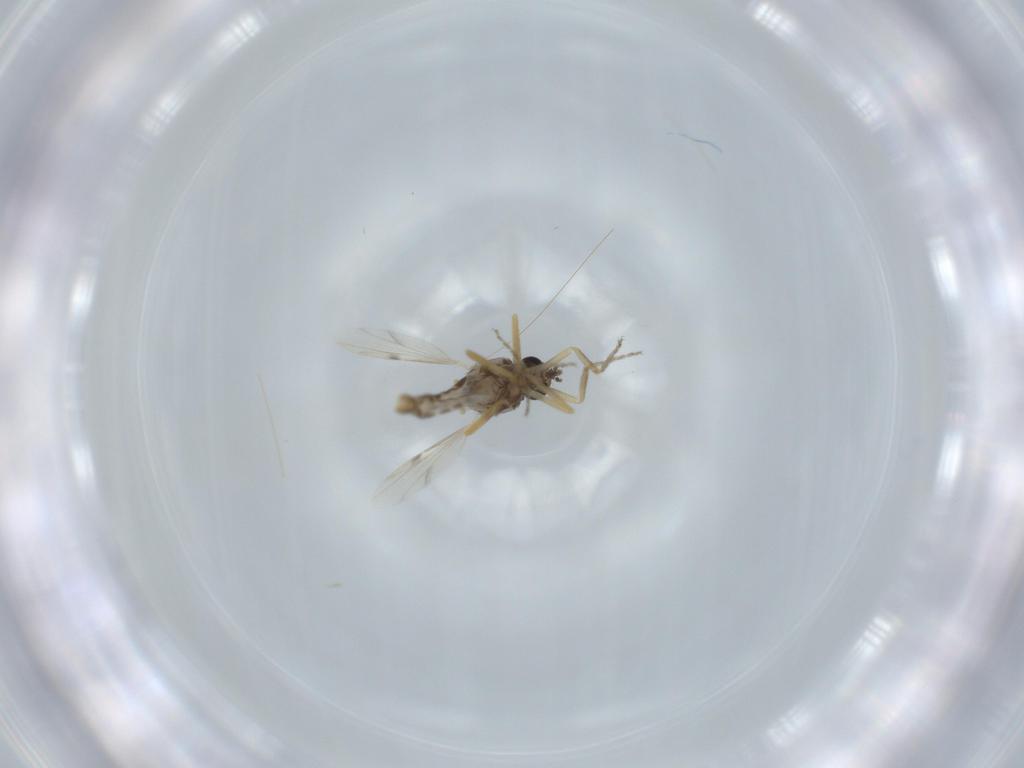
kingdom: Animalia
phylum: Arthropoda
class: Insecta
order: Diptera
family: Ceratopogonidae
